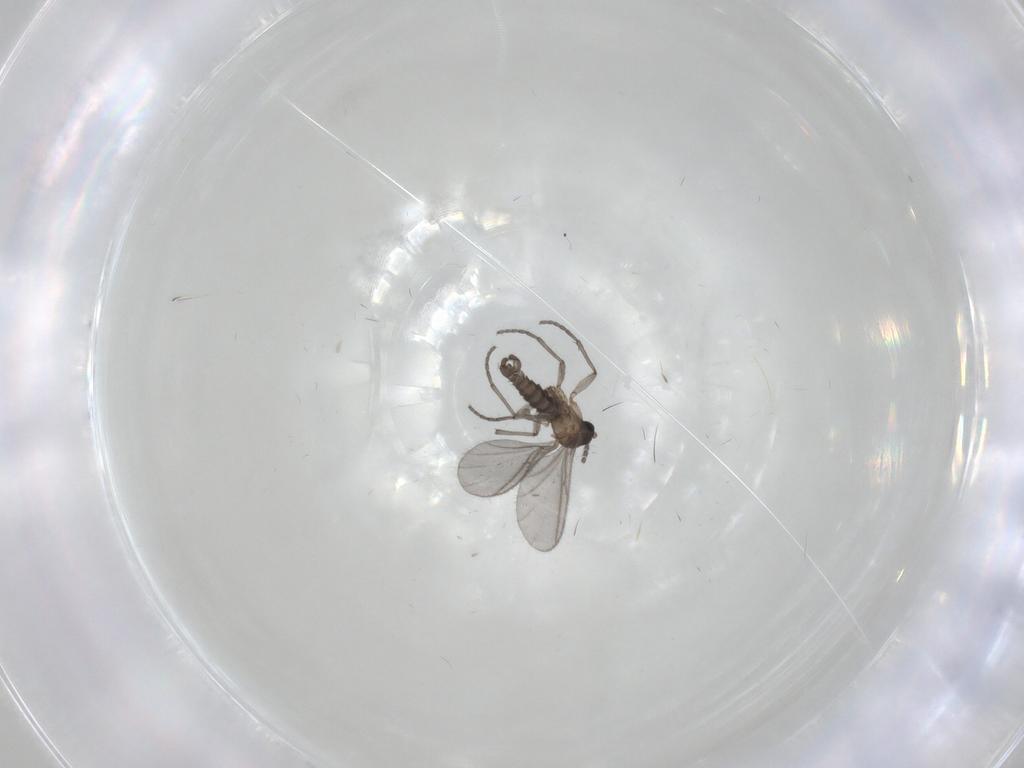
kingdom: Animalia
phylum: Arthropoda
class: Insecta
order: Diptera
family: Sciaridae
